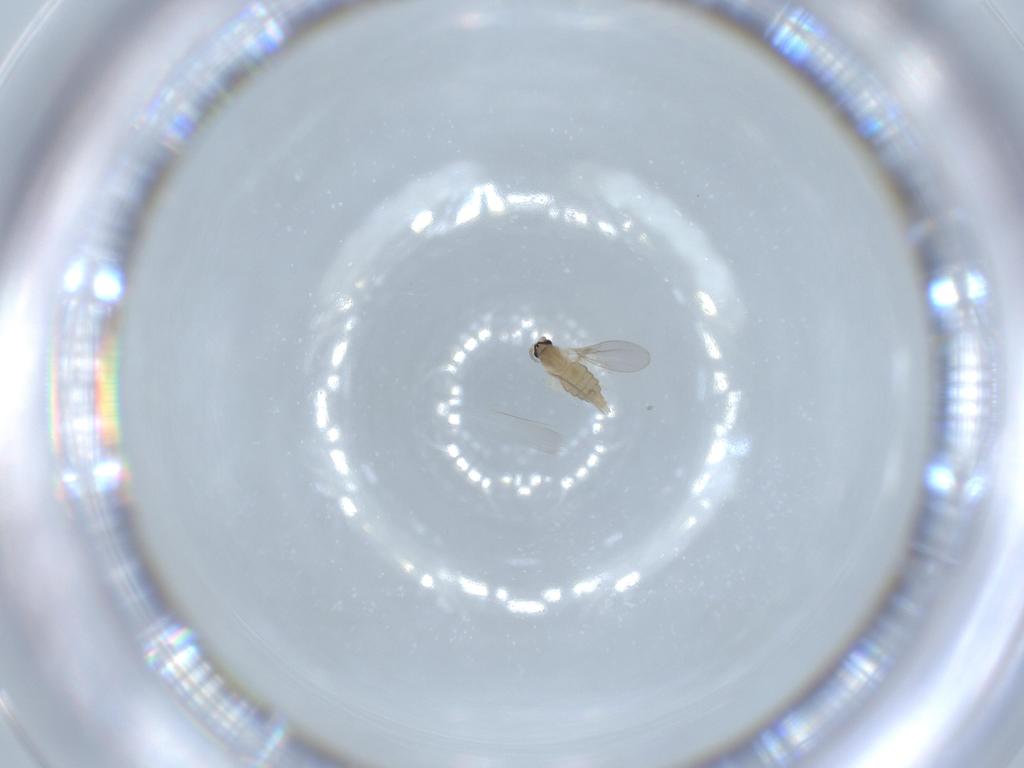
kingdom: Animalia
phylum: Arthropoda
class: Insecta
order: Diptera
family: Cecidomyiidae
